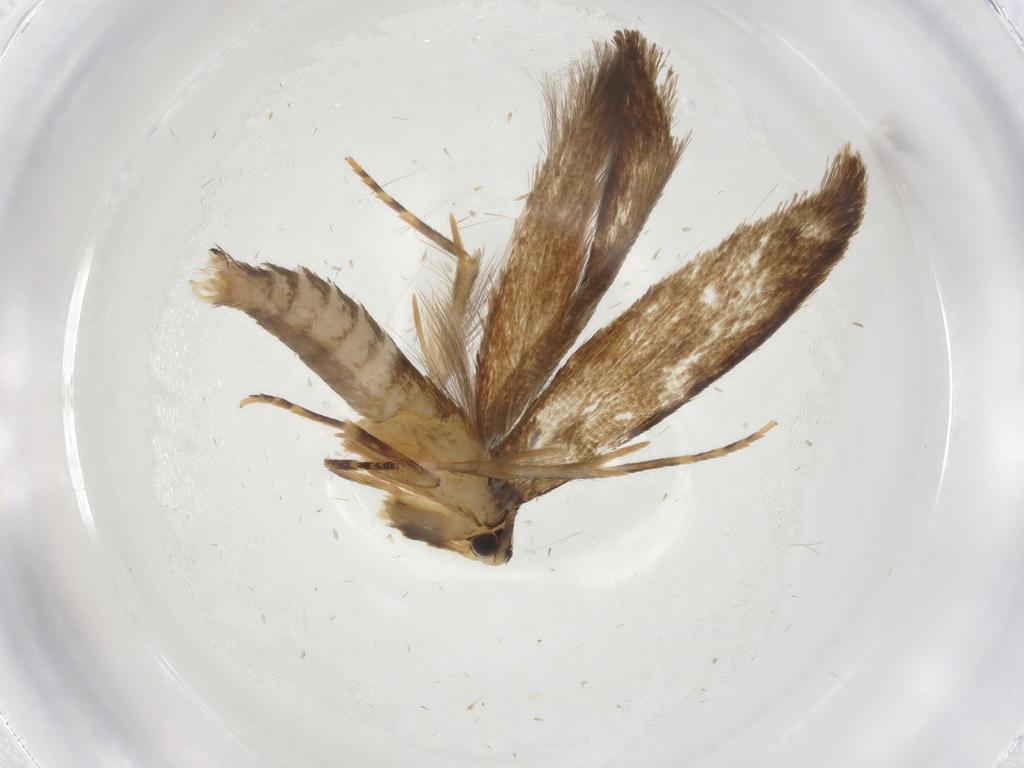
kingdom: Animalia
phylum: Arthropoda
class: Insecta
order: Lepidoptera
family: Tineidae
